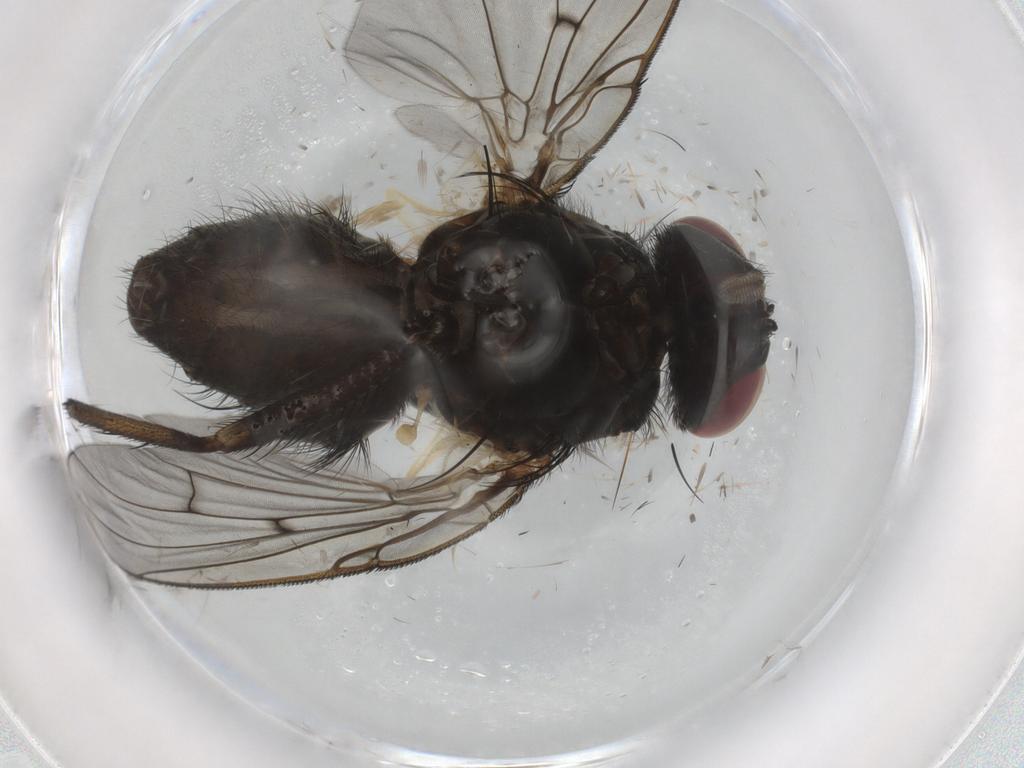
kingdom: Animalia
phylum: Arthropoda
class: Insecta
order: Diptera
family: Muscidae
